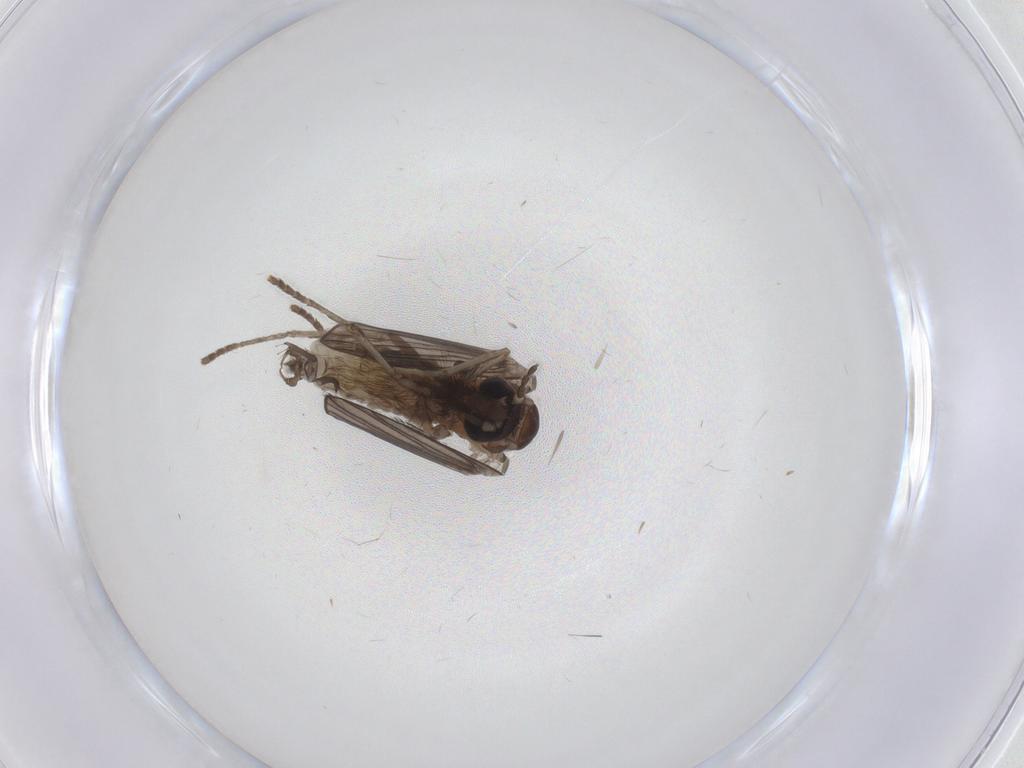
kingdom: Animalia
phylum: Arthropoda
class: Insecta
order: Diptera
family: Psychodidae
